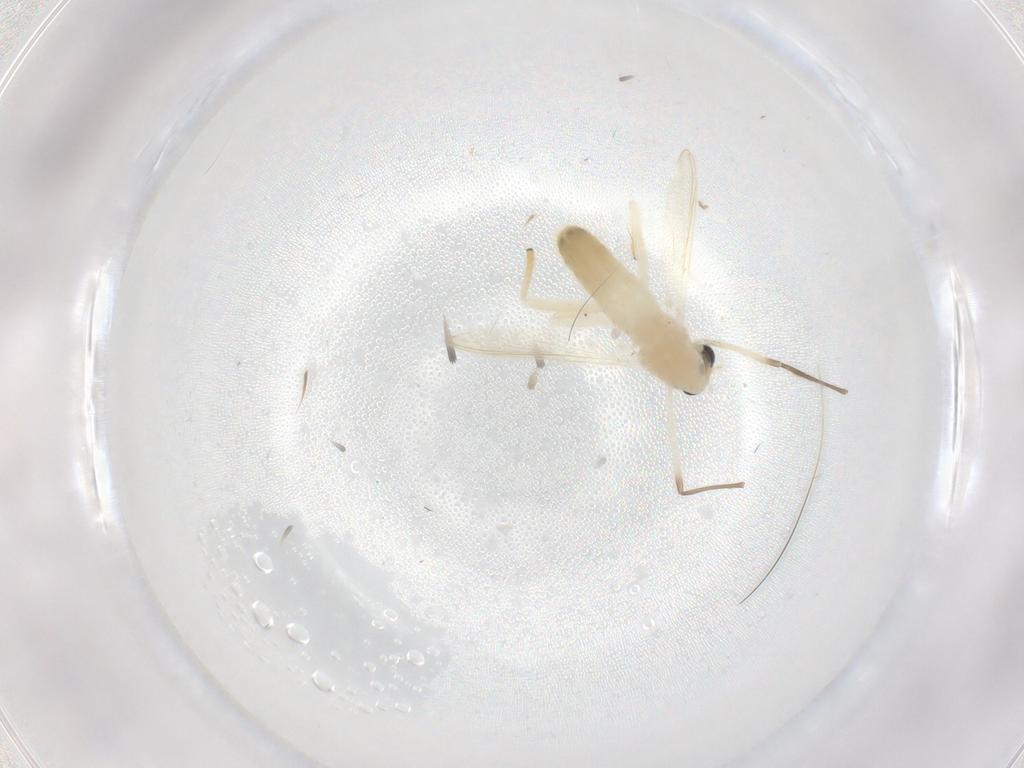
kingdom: Animalia
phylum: Arthropoda
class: Insecta
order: Diptera
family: Chironomidae
